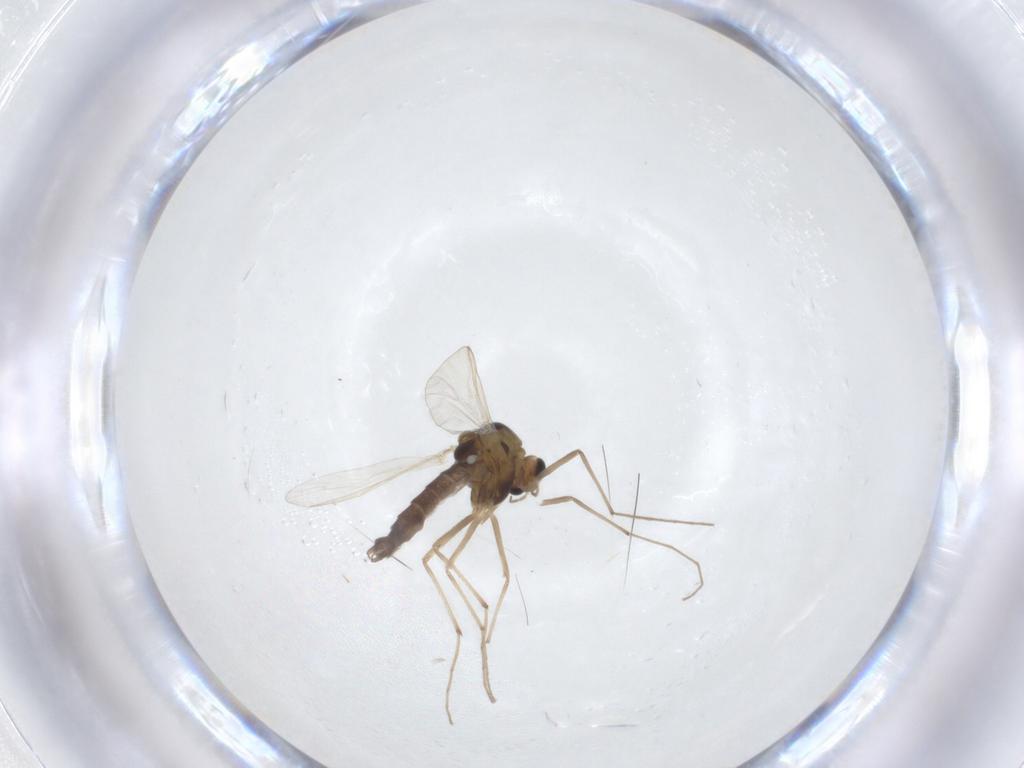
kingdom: Animalia
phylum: Arthropoda
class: Insecta
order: Diptera
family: Chironomidae
